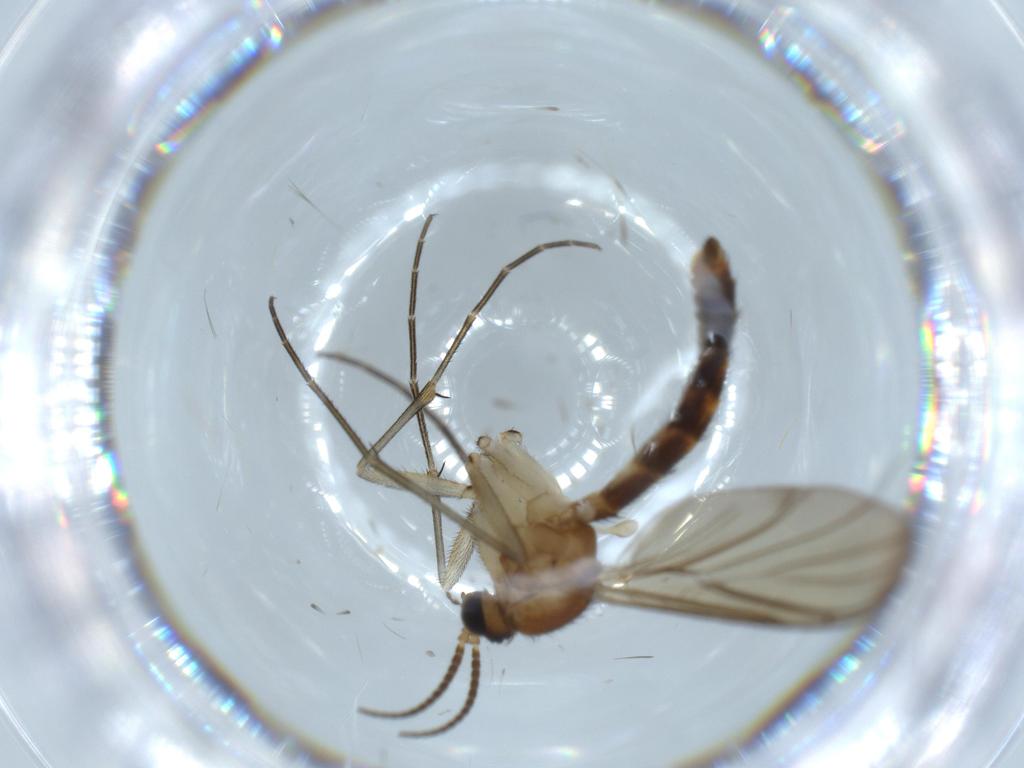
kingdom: Animalia
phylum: Arthropoda
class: Insecta
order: Diptera
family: Keroplatidae
